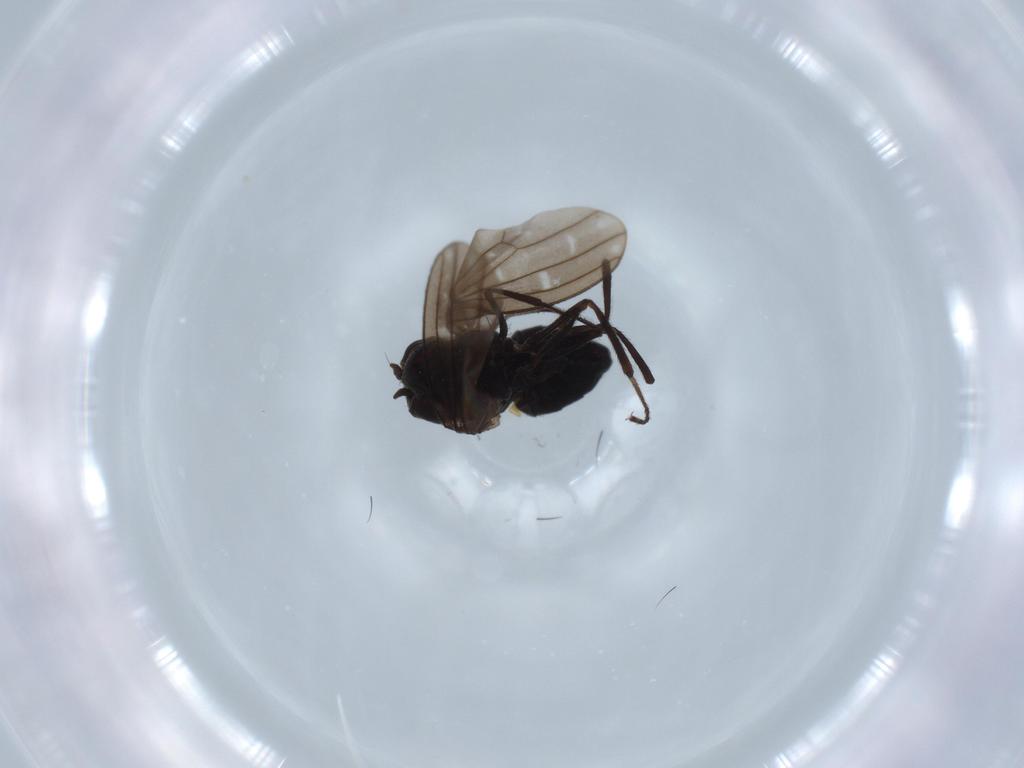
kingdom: Animalia
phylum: Arthropoda
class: Insecta
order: Diptera
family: Sciaridae
